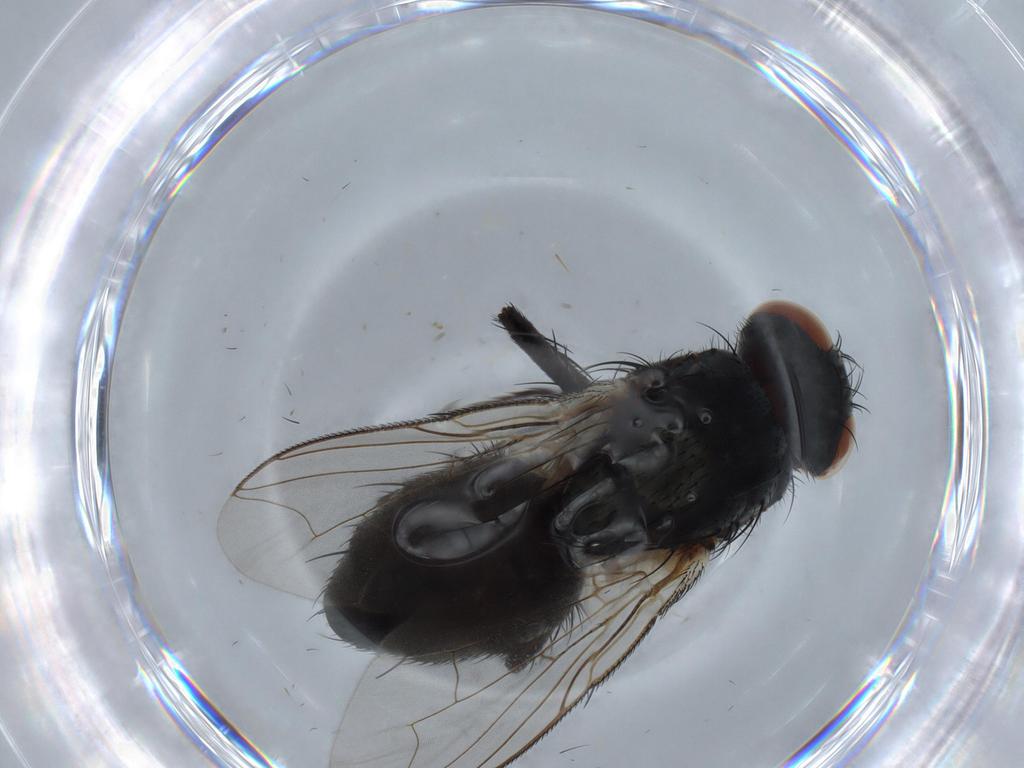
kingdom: Animalia
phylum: Arthropoda
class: Insecta
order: Diptera
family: Sarcophagidae
